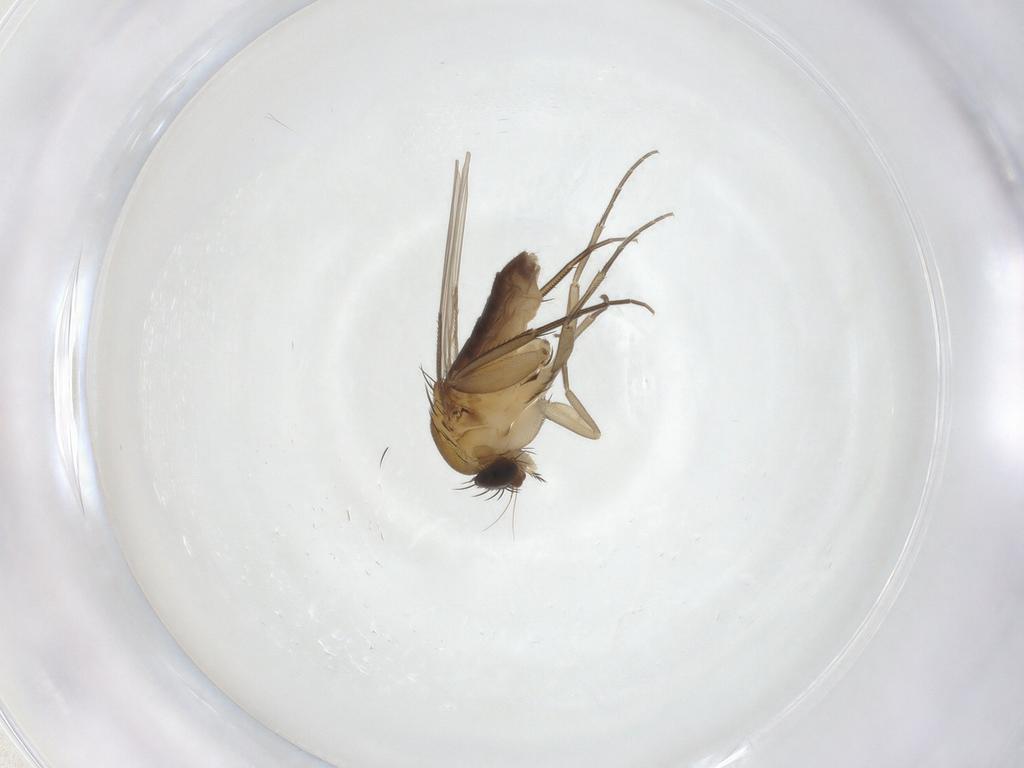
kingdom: Animalia
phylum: Arthropoda
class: Insecta
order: Diptera
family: Phoridae
